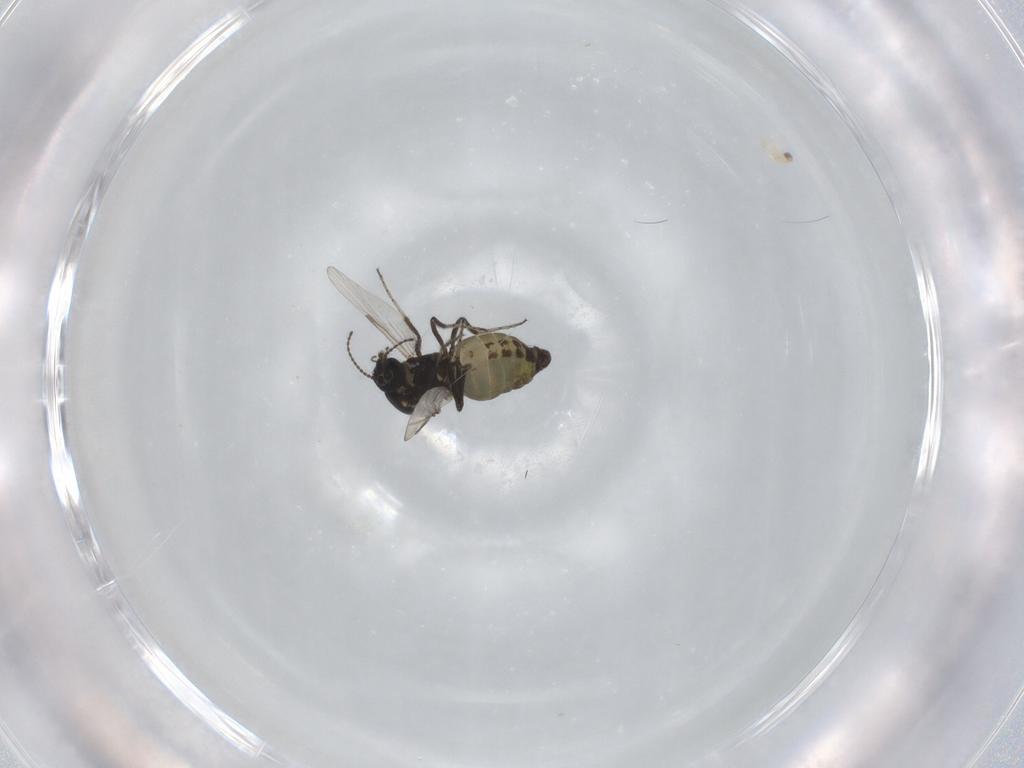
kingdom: Animalia
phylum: Arthropoda
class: Insecta
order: Diptera
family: Ceratopogonidae
